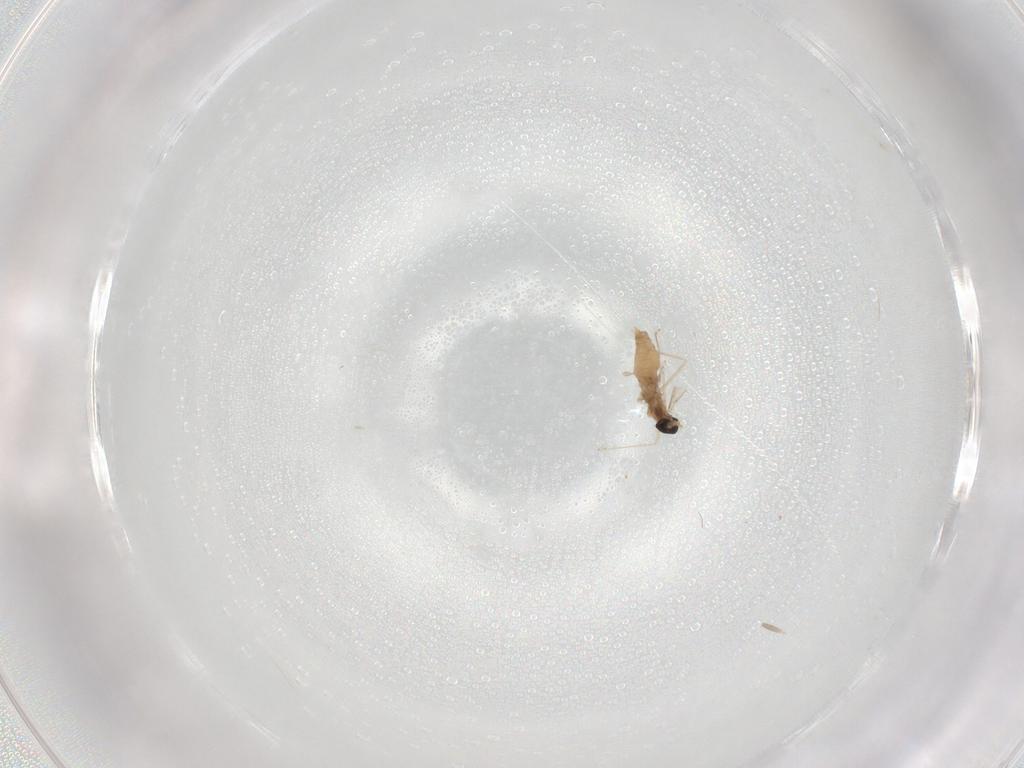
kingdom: Animalia
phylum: Arthropoda
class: Insecta
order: Diptera
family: Cecidomyiidae
